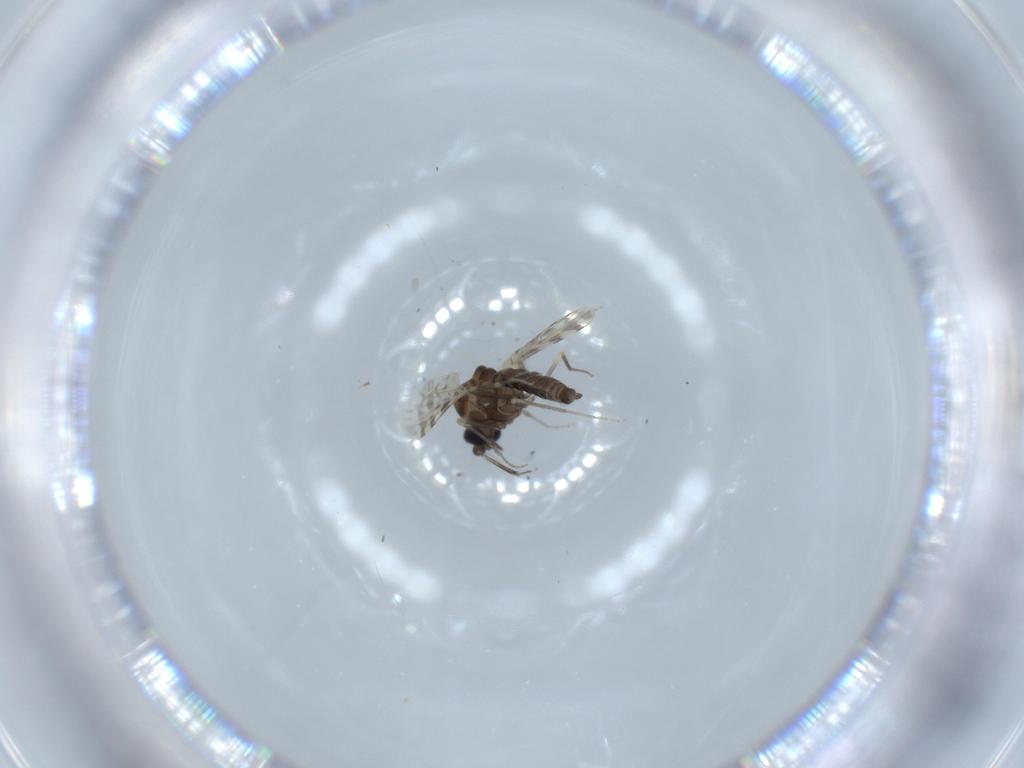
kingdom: Animalia
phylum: Arthropoda
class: Insecta
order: Diptera
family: Ceratopogonidae
